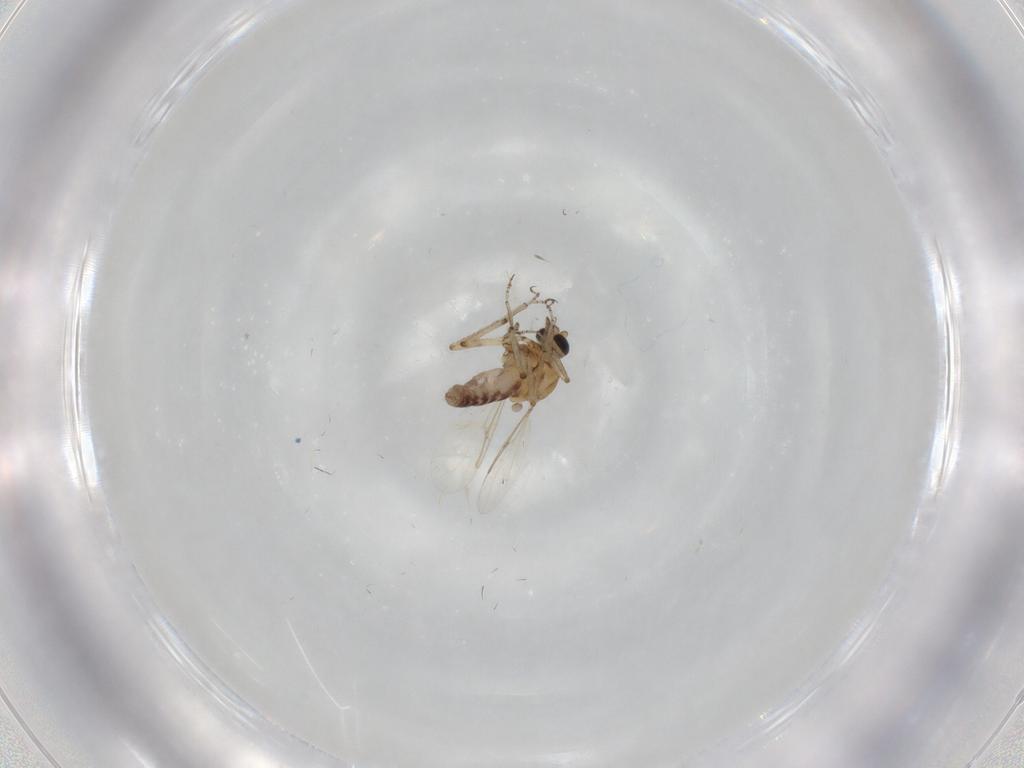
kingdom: Animalia
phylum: Arthropoda
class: Insecta
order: Diptera
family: Ceratopogonidae
